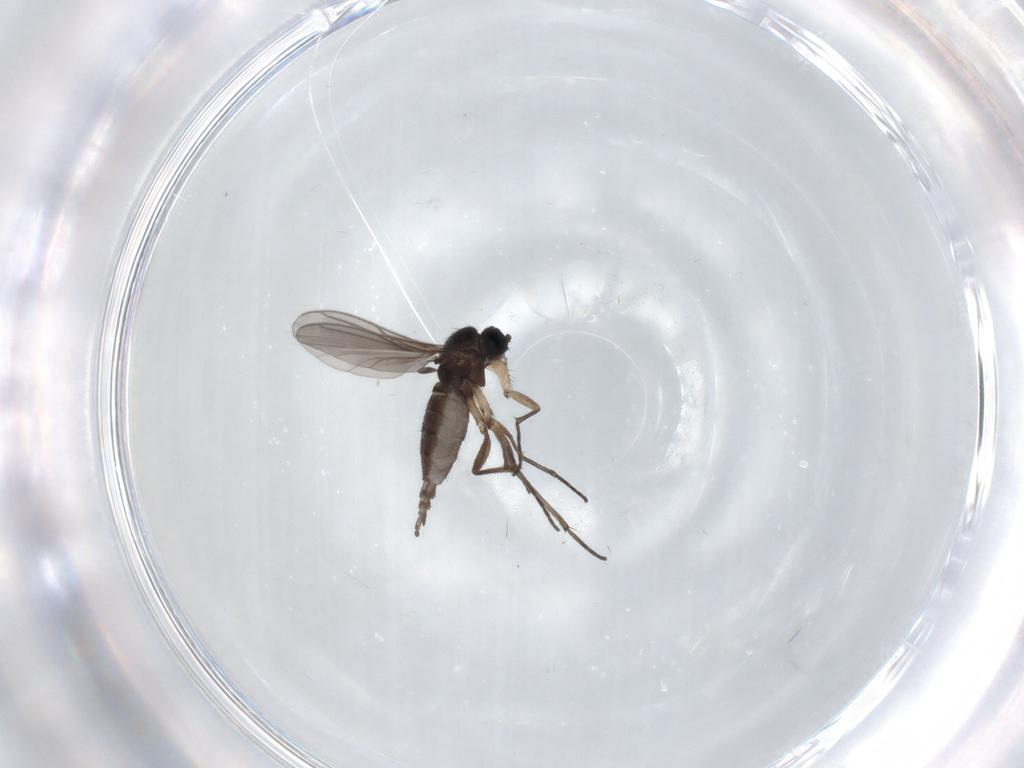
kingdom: Animalia
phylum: Arthropoda
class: Insecta
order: Diptera
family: Sciaridae
